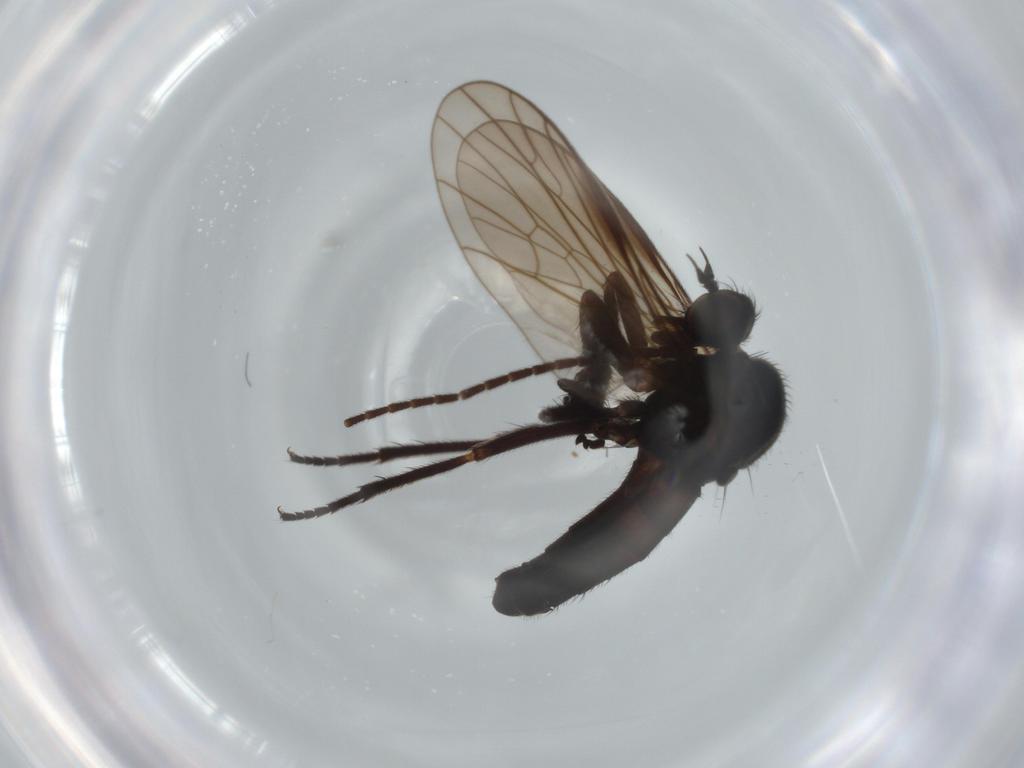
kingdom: Animalia
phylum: Arthropoda
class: Insecta
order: Diptera
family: Empididae
